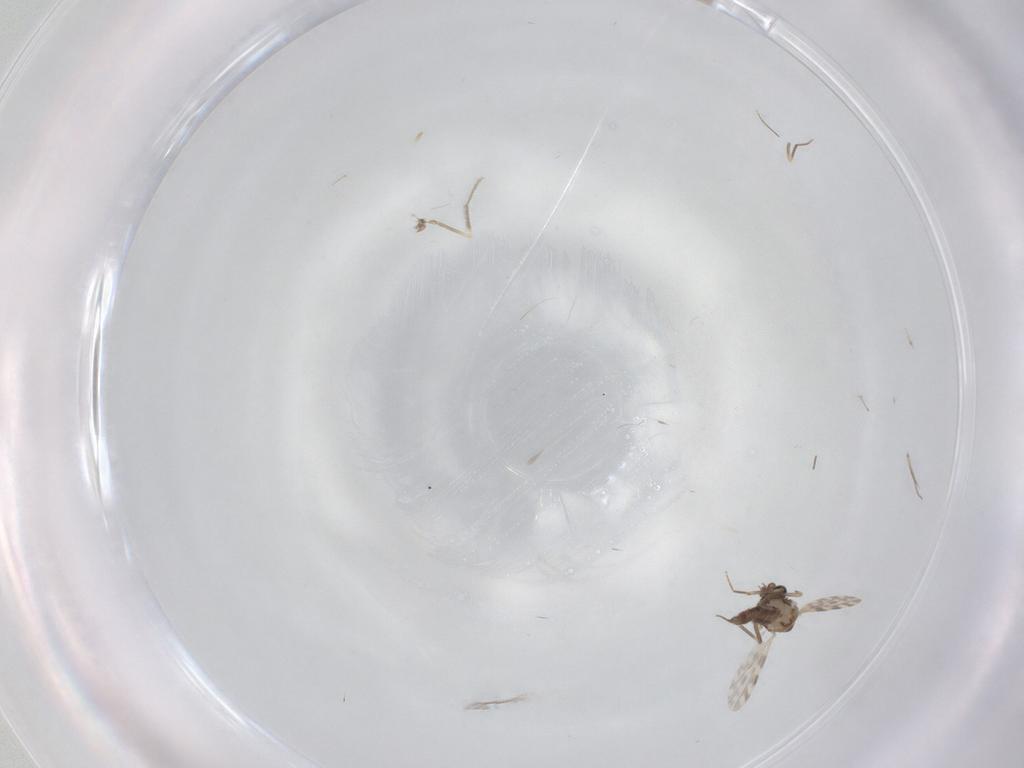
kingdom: Animalia
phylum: Arthropoda
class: Insecta
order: Diptera
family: Ceratopogonidae
